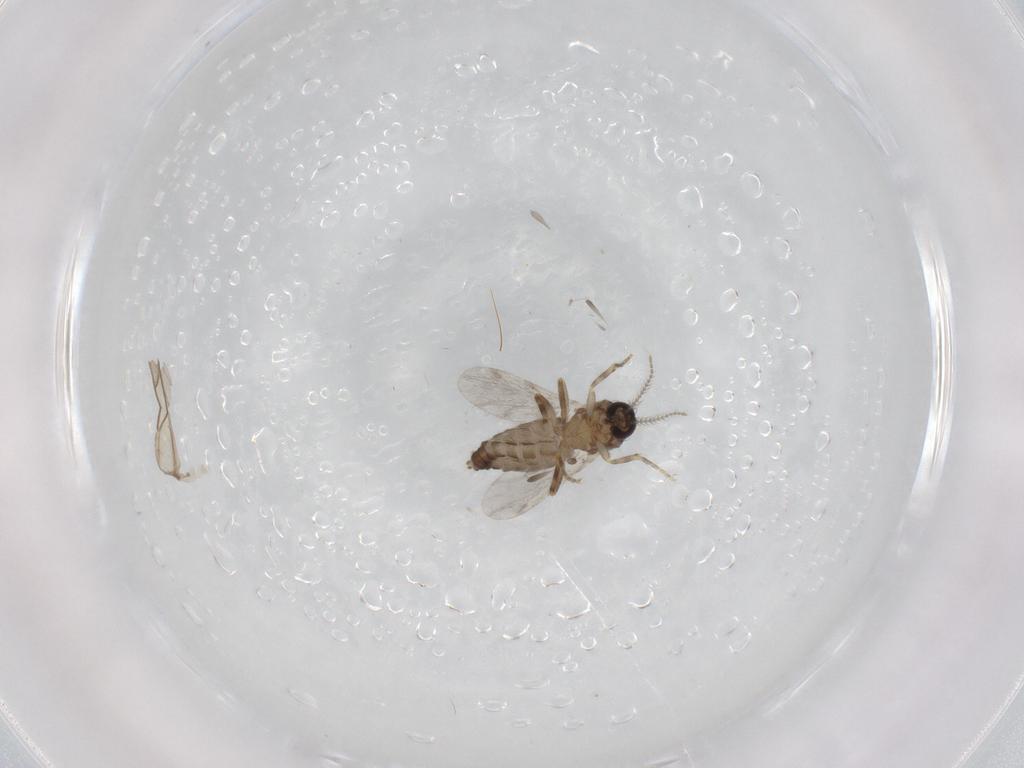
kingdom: Animalia
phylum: Arthropoda
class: Insecta
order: Diptera
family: Ceratopogonidae
